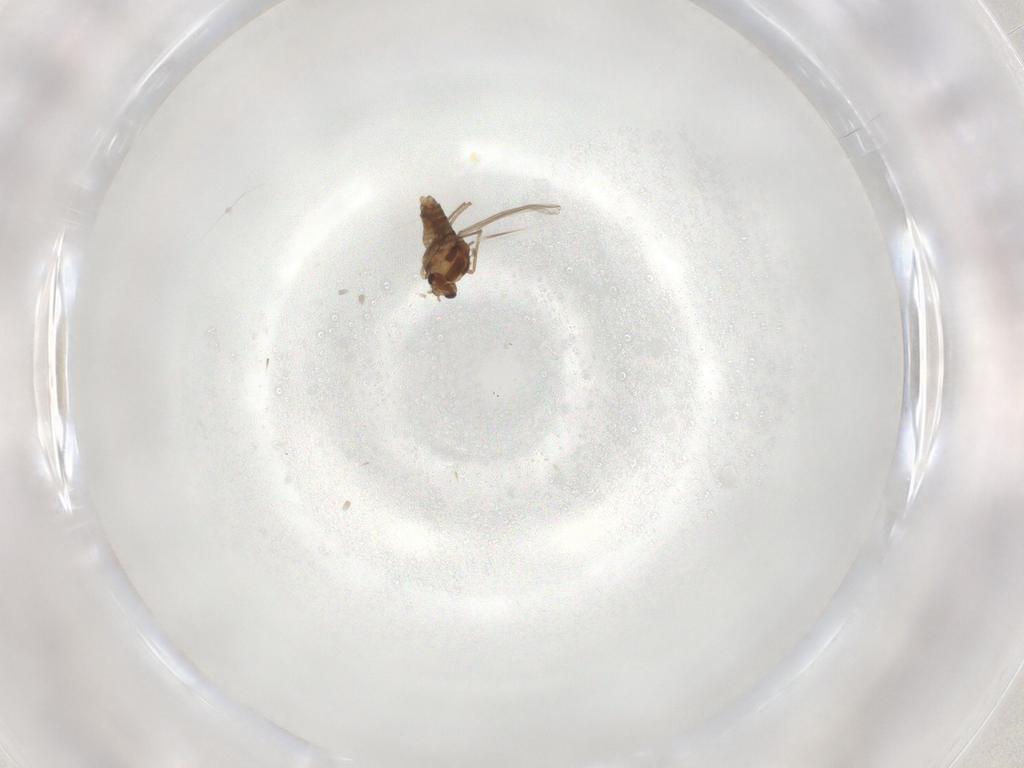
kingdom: Animalia
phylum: Arthropoda
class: Insecta
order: Diptera
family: Chironomidae
